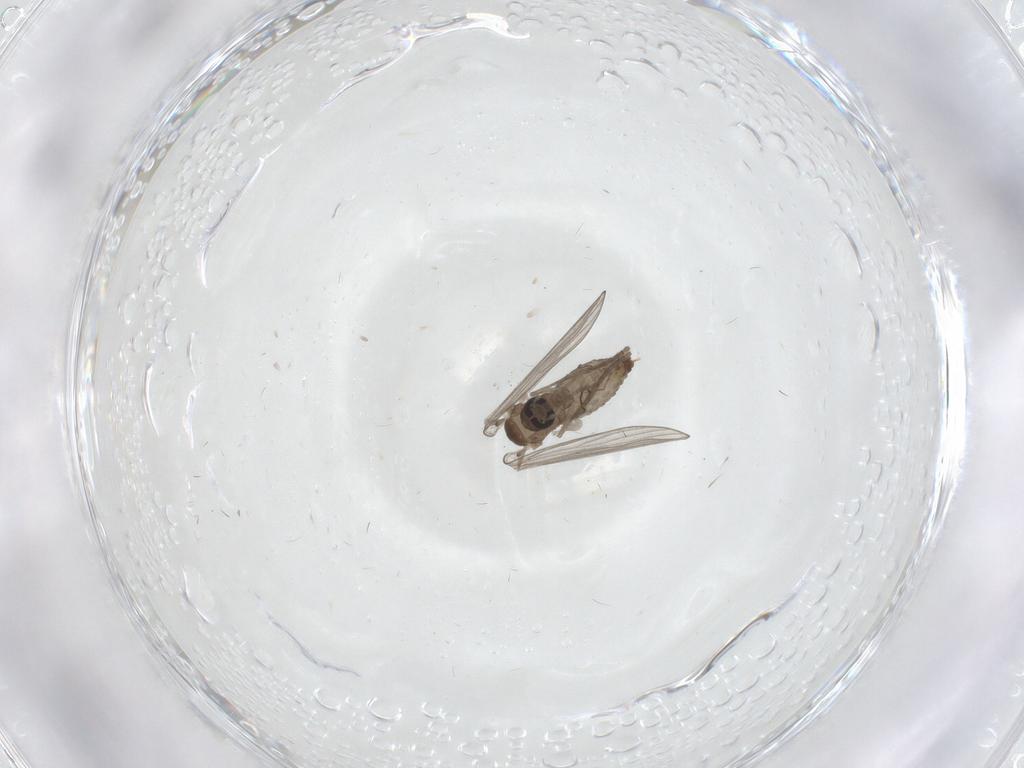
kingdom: Animalia
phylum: Arthropoda
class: Insecta
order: Diptera
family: Psychodidae
